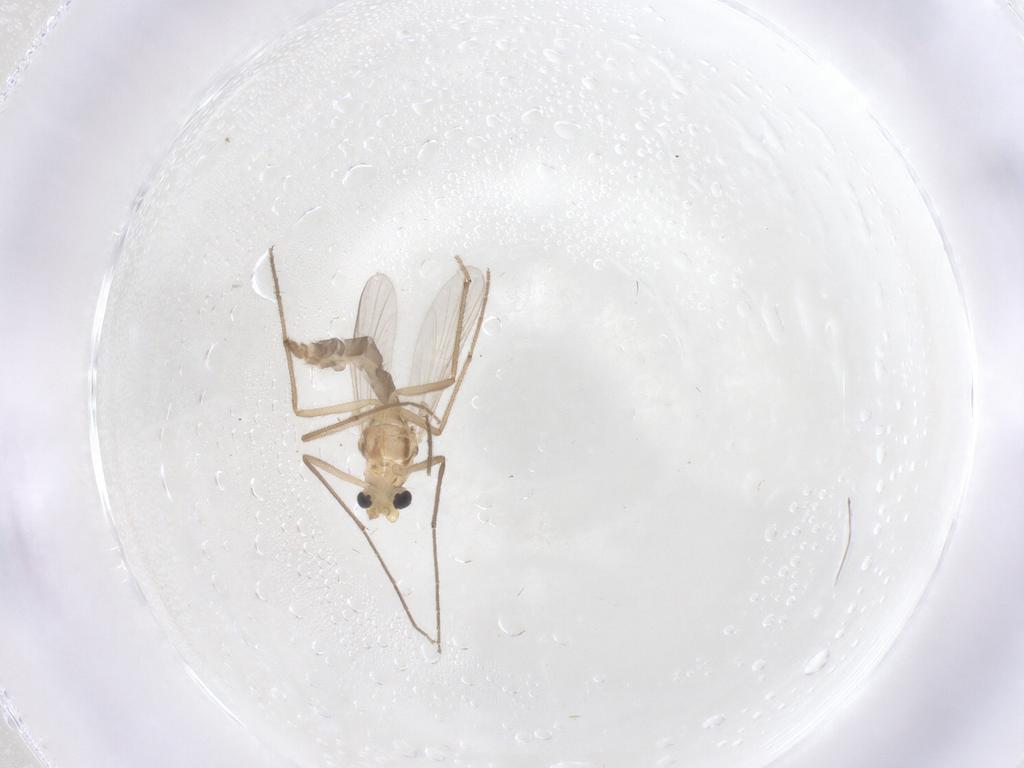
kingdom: Animalia
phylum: Arthropoda
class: Insecta
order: Diptera
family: Chironomidae
